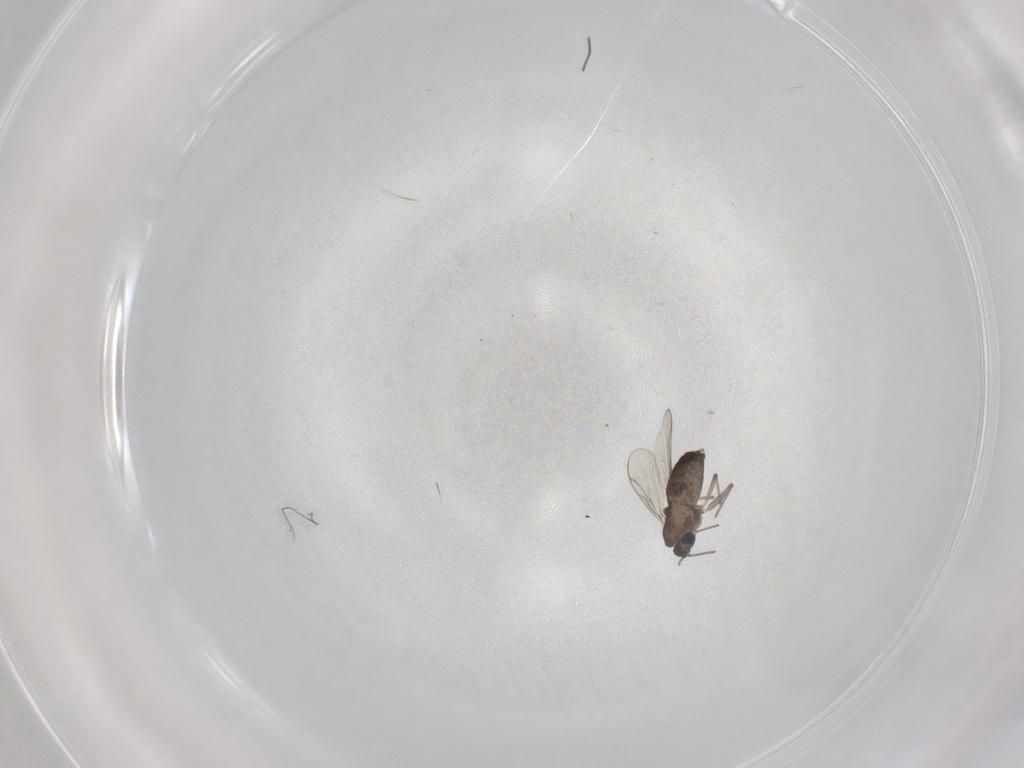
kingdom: Animalia
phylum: Arthropoda
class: Insecta
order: Diptera
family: Chironomidae
